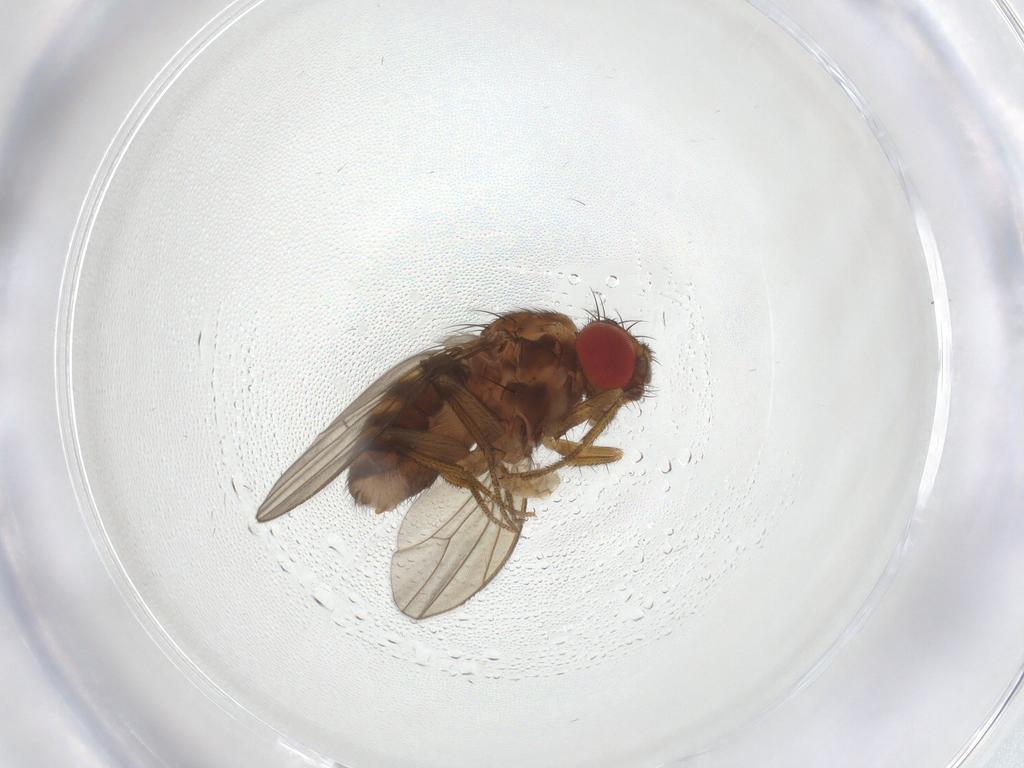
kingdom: Animalia
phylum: Arthropoda
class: Insecta
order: Diptera
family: Drosophilidae
